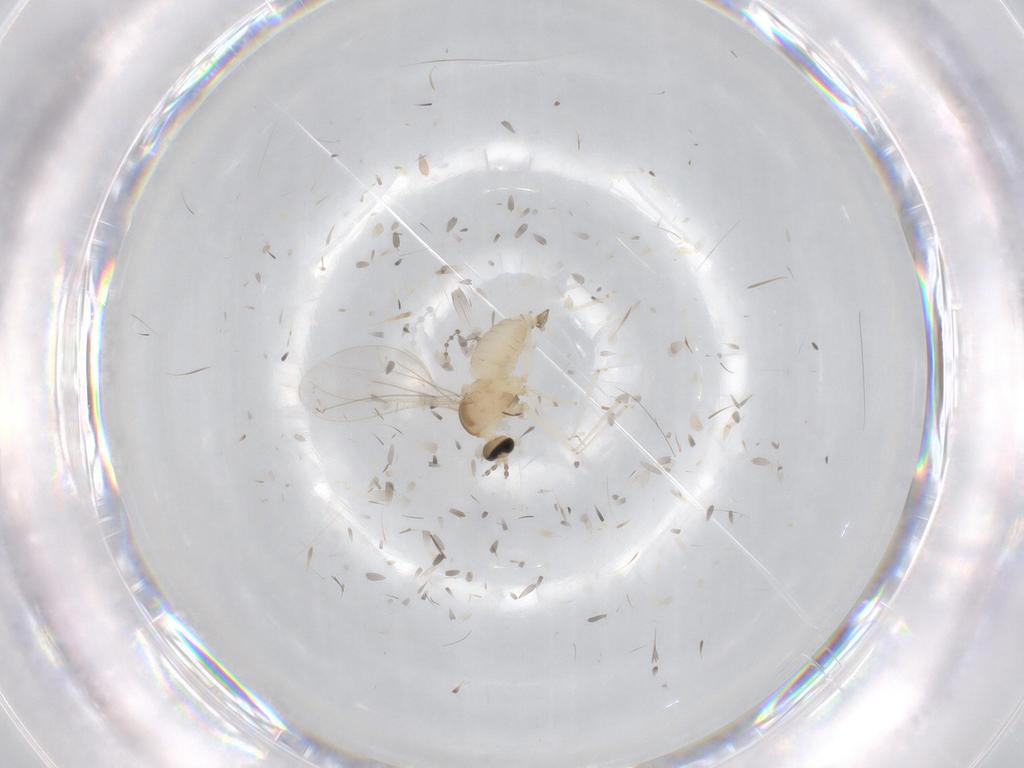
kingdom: Animalia
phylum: Arthropoda
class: Insecta
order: Diptera
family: Cecidomyiidae
